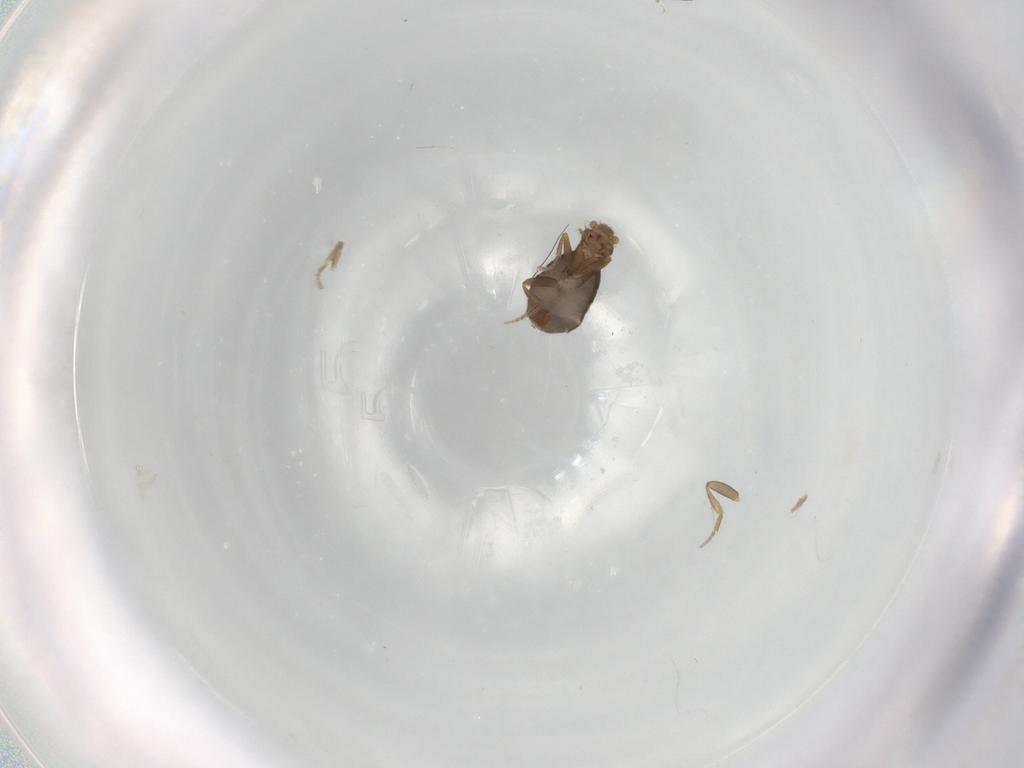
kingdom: Animalia
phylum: Arthropoda
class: Insecta
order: Diptera
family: Phoridae
